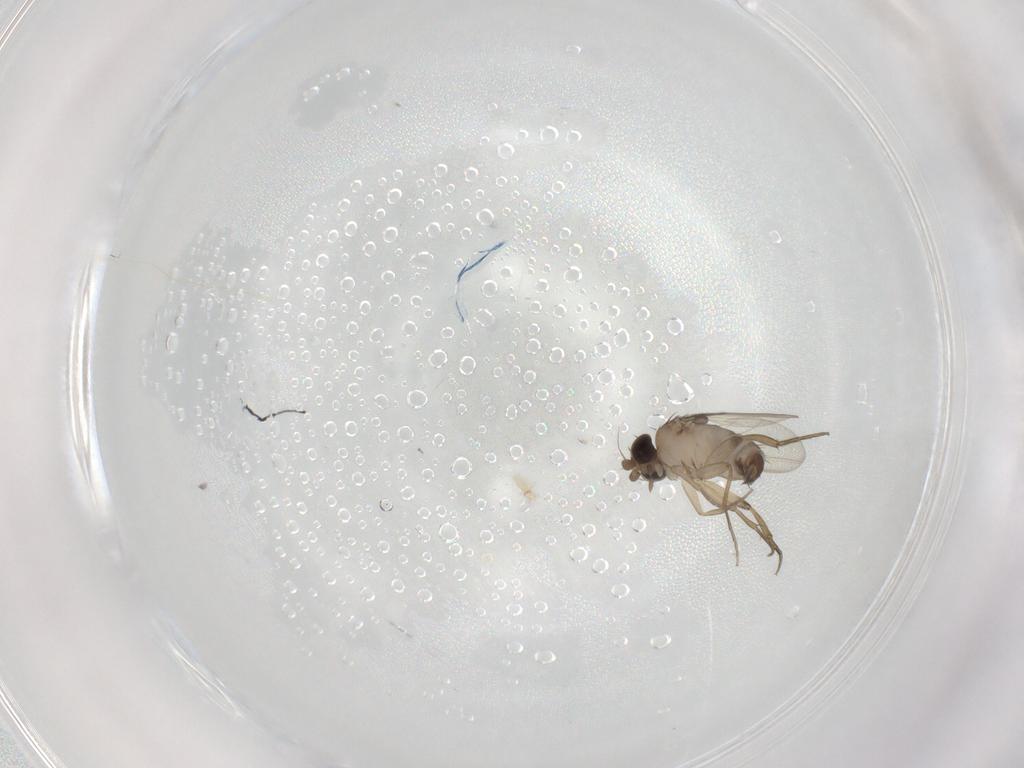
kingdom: Animalia
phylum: Arthropoda
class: Insecta
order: Diptera
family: Phoridae
